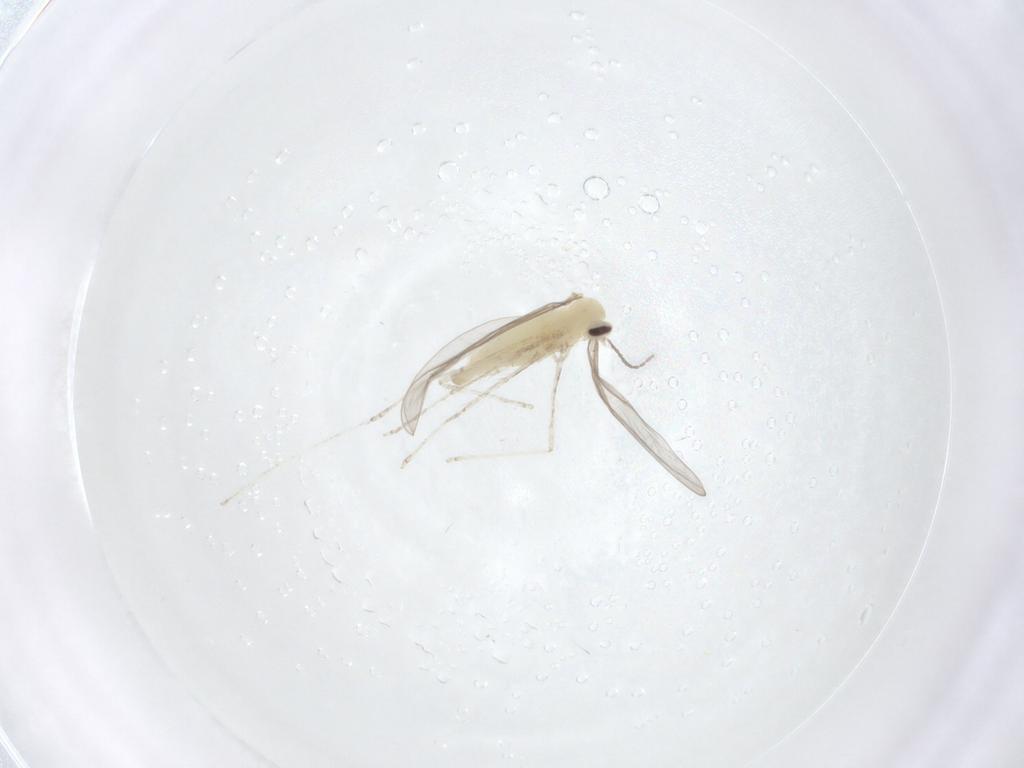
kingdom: Animalia
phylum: Arthropoda
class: Insecta
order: Diptera
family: Cecidomyiidae
